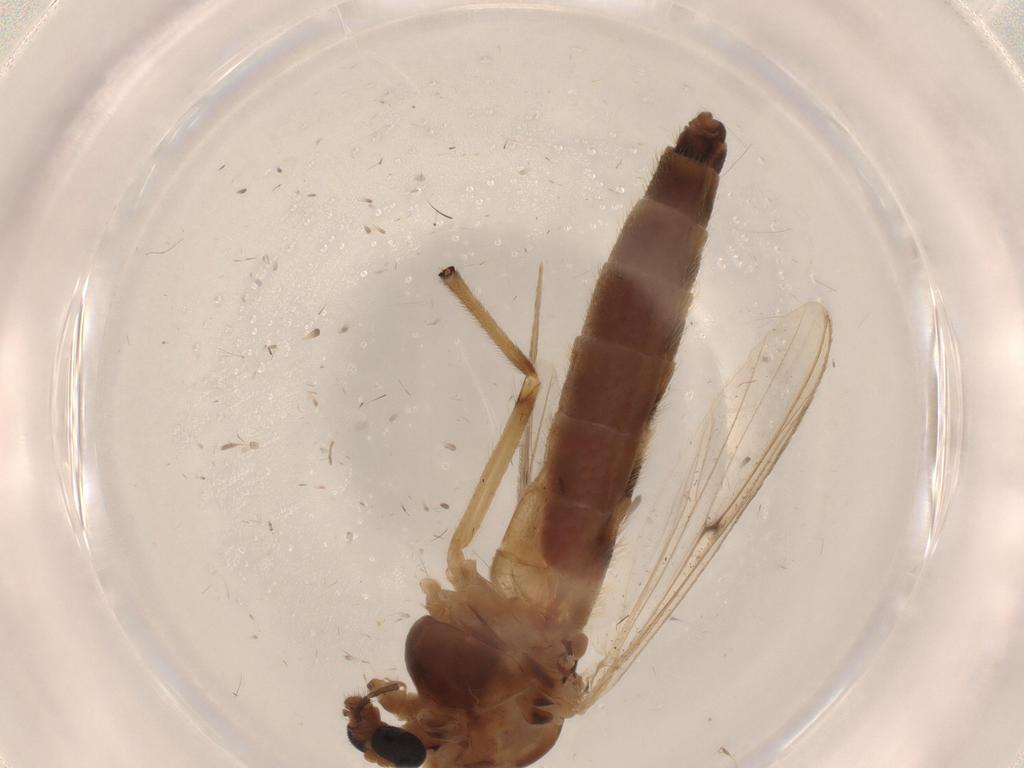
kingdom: Animalia
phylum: Arthropoda
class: Insecta
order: Diptera
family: Chironomidae
